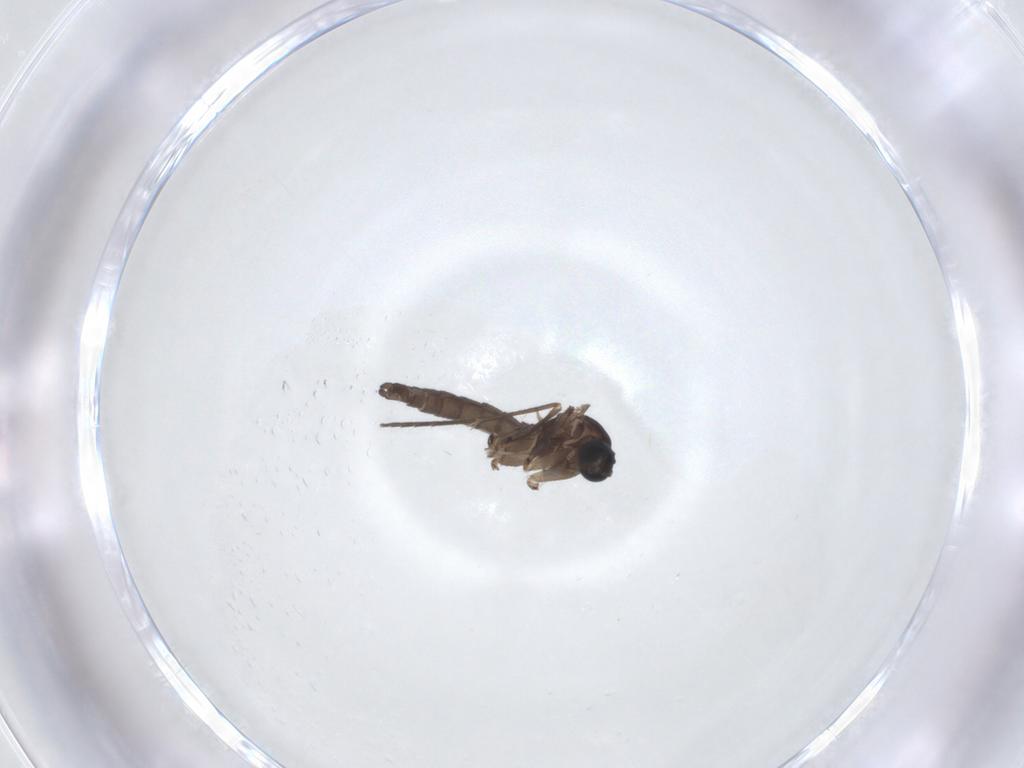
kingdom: Animalia
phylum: Arthropoda
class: Insecta
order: Diptera
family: Sciaridae
